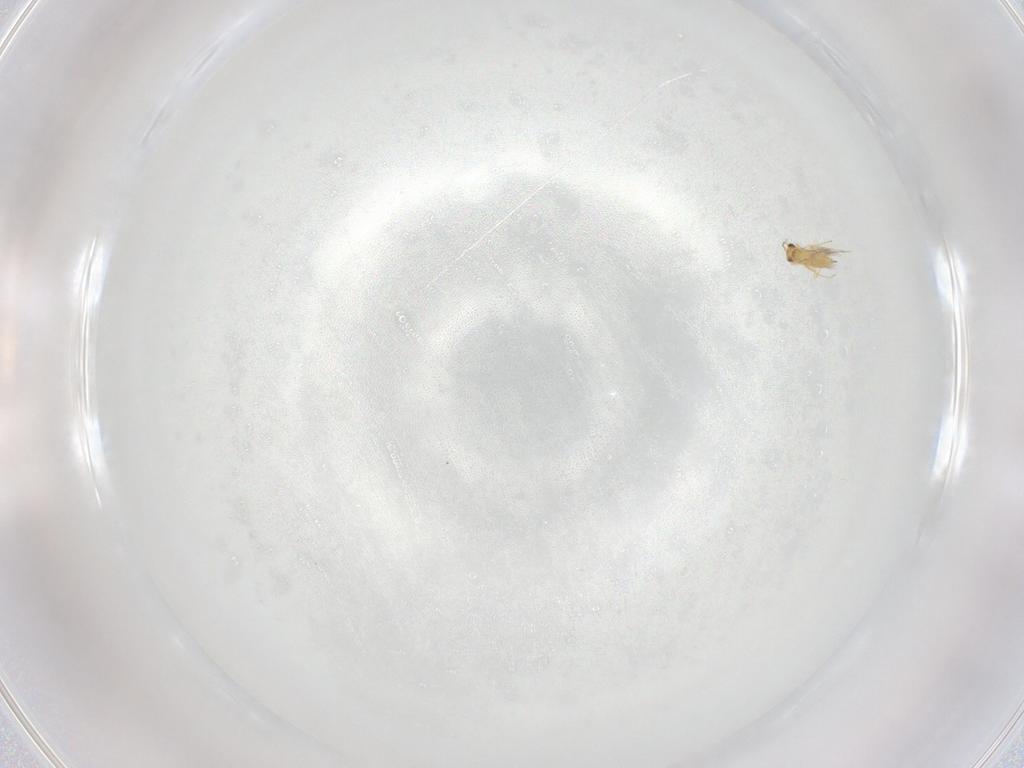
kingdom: Animalia
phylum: Arthropoda
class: Insecta
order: Hymenoptera
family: Mymaridae
